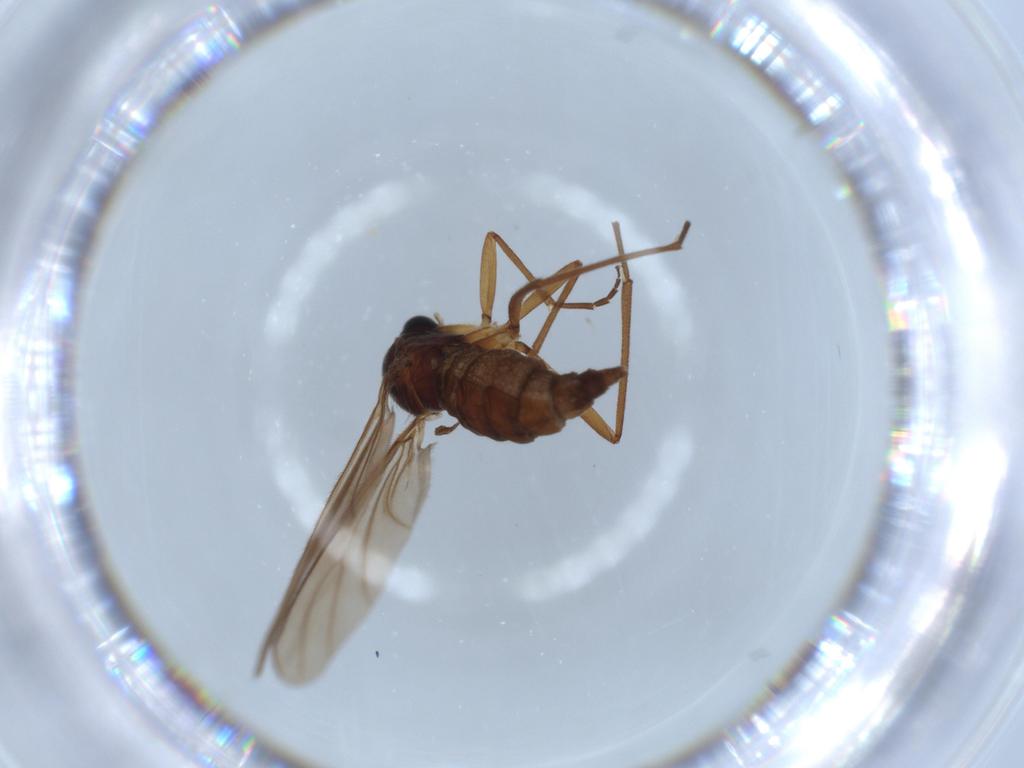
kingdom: Animalia
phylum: Arthropoda
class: Insecta
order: Diptera
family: Sciaridae
